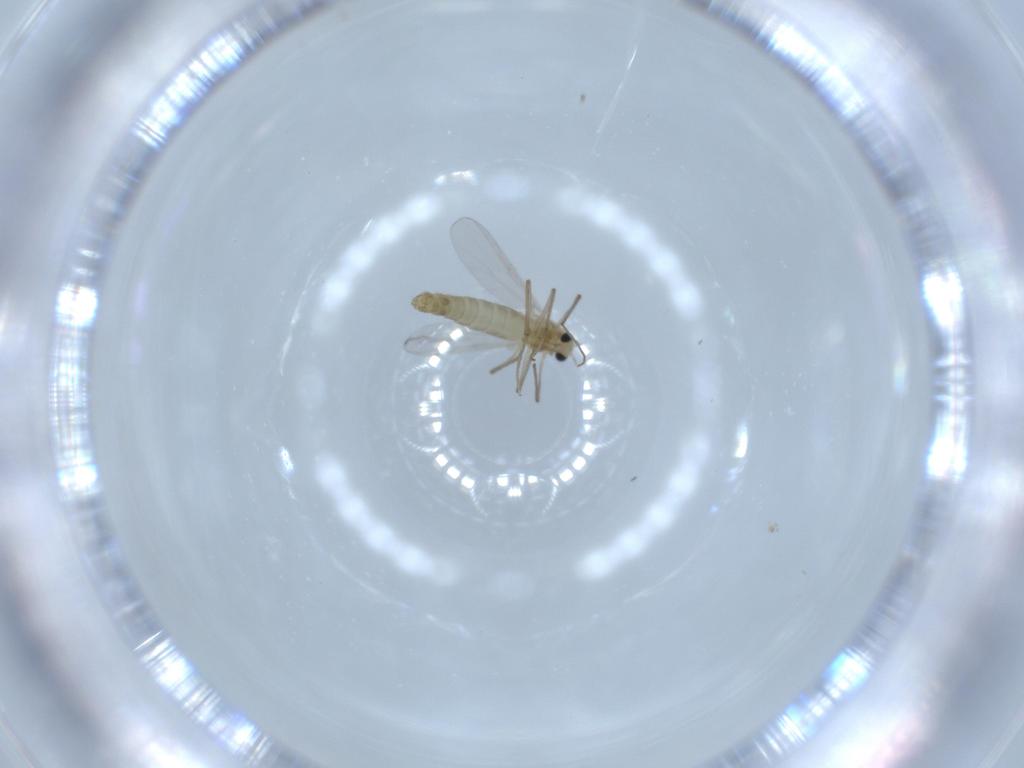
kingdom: Animalia
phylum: Arthropoda
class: Insecta
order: Diptera
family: Chironomidae
